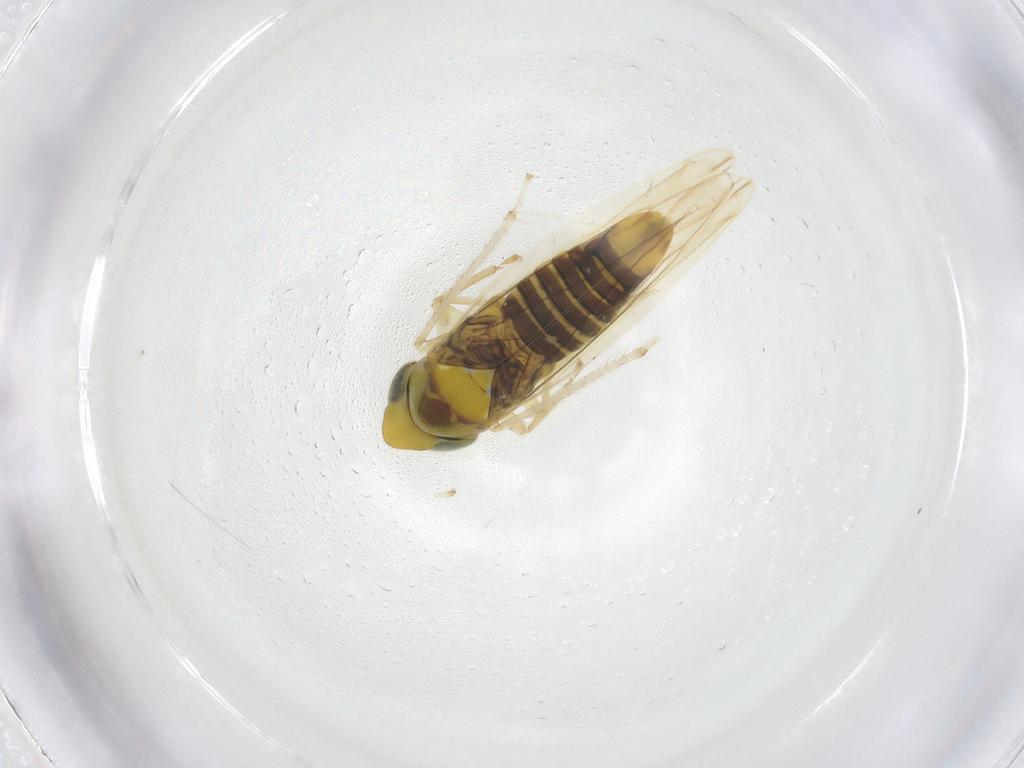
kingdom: Animalia
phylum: Arthropoda
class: Insecta
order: Hemiptera
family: Cicadellidae
